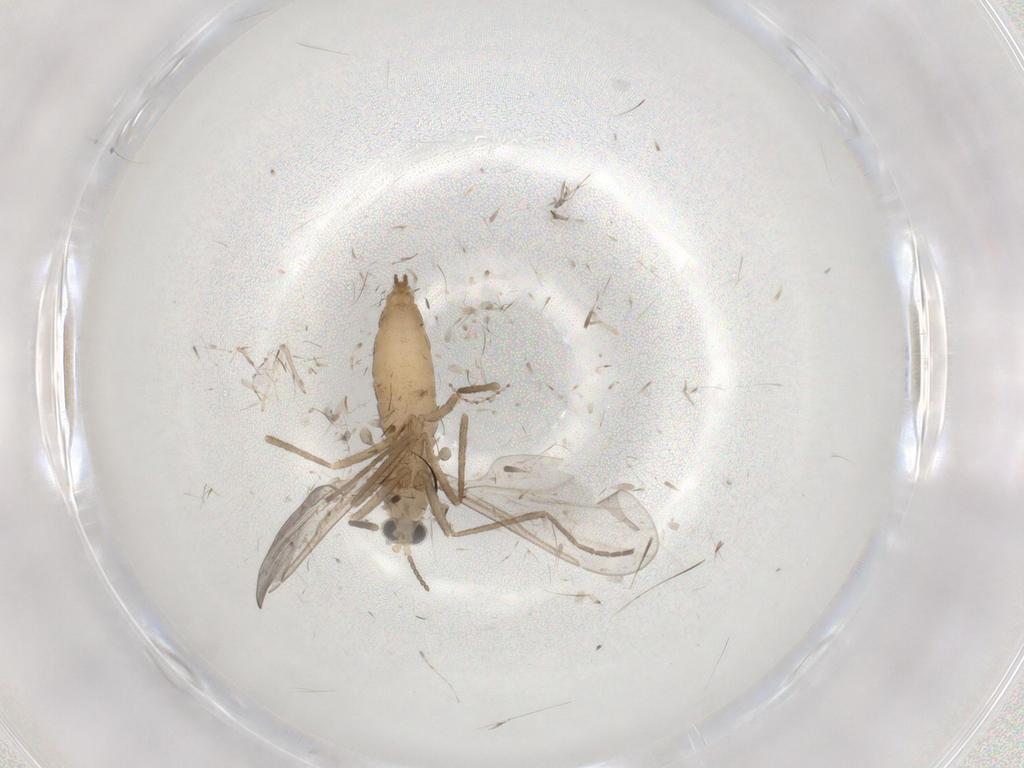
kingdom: Animalia
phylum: Arthropoda
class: Insecta
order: Diptera
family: Cecidomyiidae
